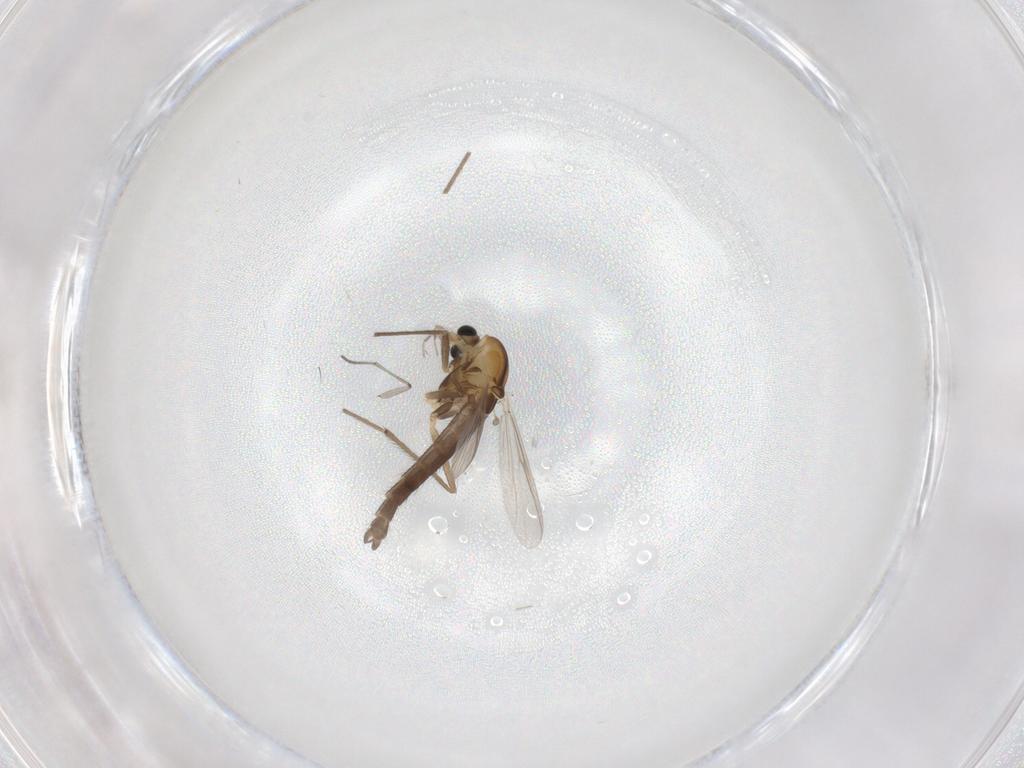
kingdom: Animalia
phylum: Arthropoda
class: Insecta
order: Diptera
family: Chironomidae
